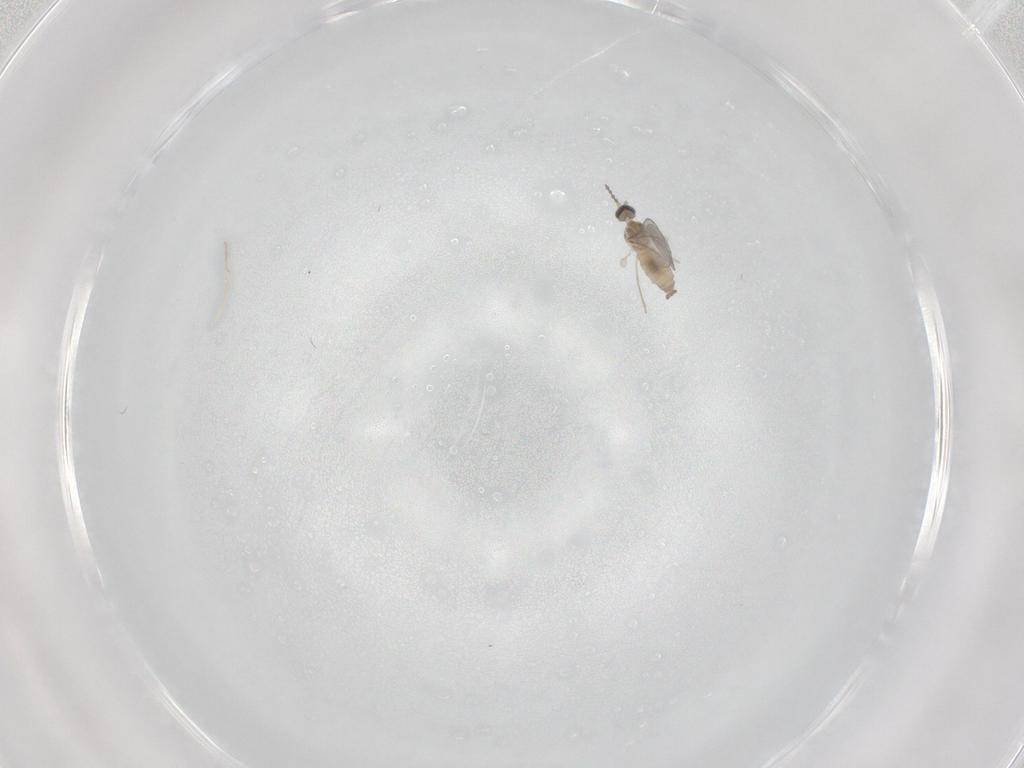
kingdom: Animalia
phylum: Arthropoda
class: Insecta
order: Diptera
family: Cecidomyiidae
